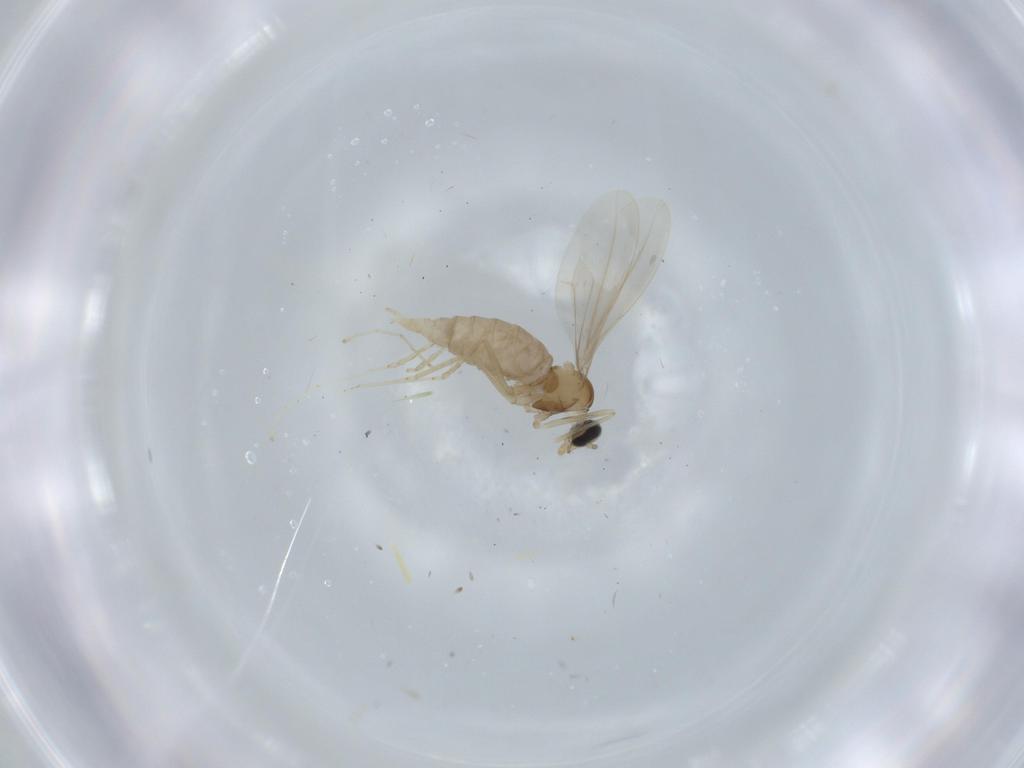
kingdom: Animalia
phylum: Arthropoda
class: Insecta
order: Diptera
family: Cecidomyiidae
